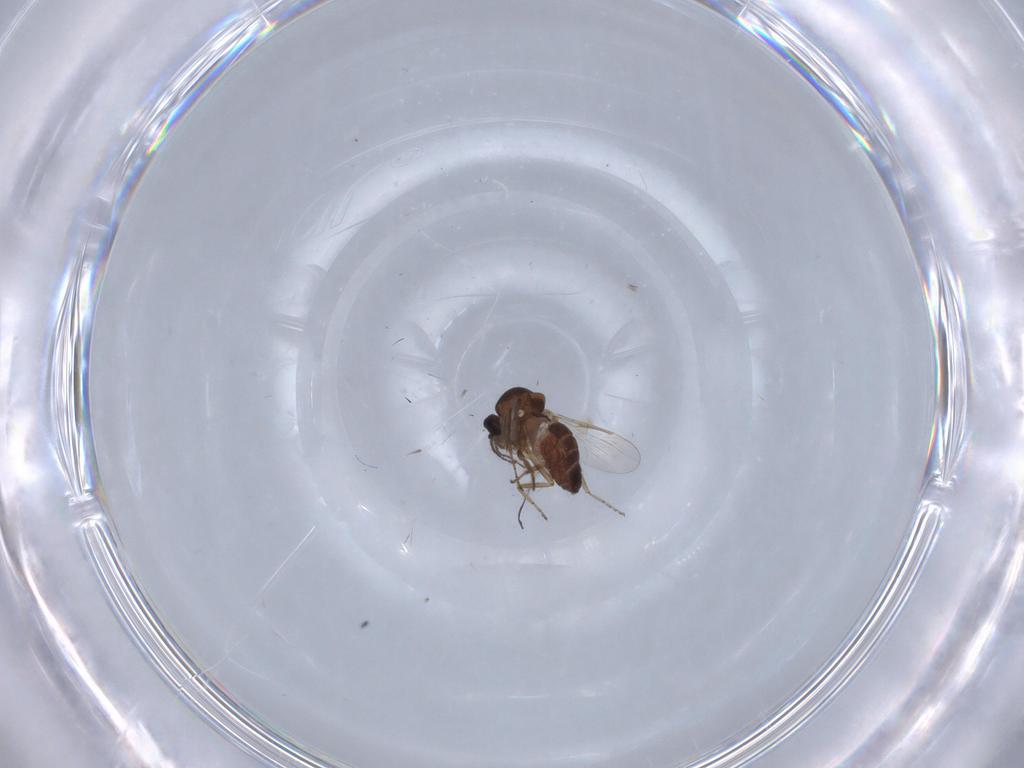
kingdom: Animalia
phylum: Arthropoda
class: Insecta
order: Diptera
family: Ceratopogonidae
